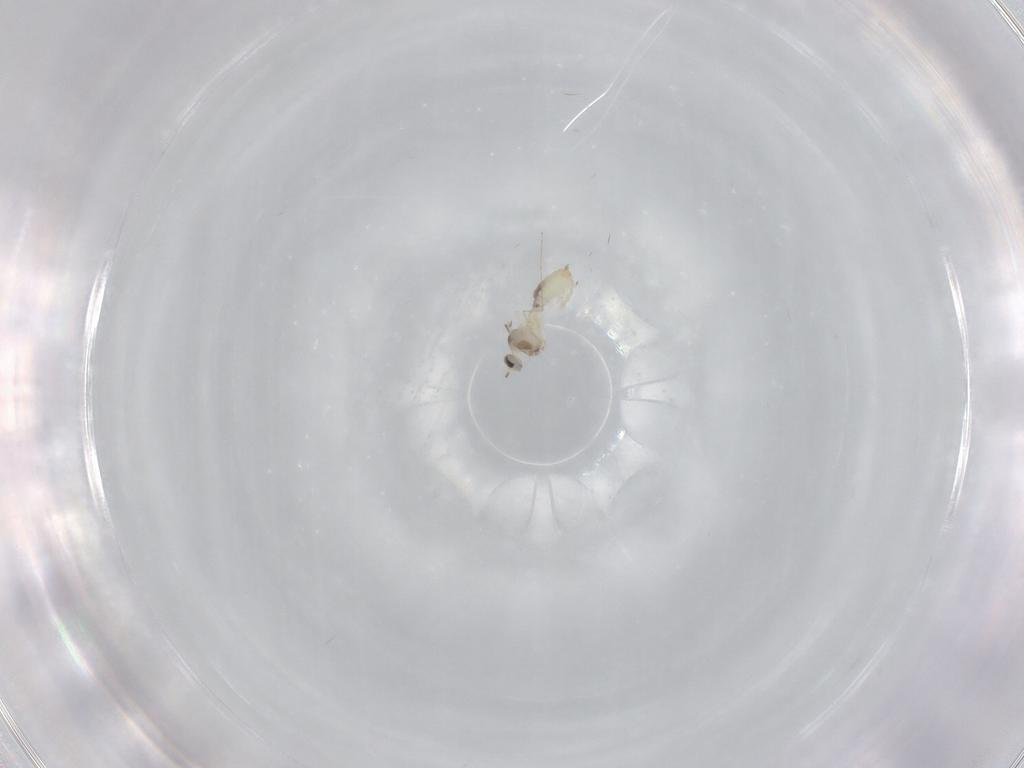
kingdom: Animalia
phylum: Arthropoda
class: Insecta
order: Diptera
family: Cecidomyiidae
